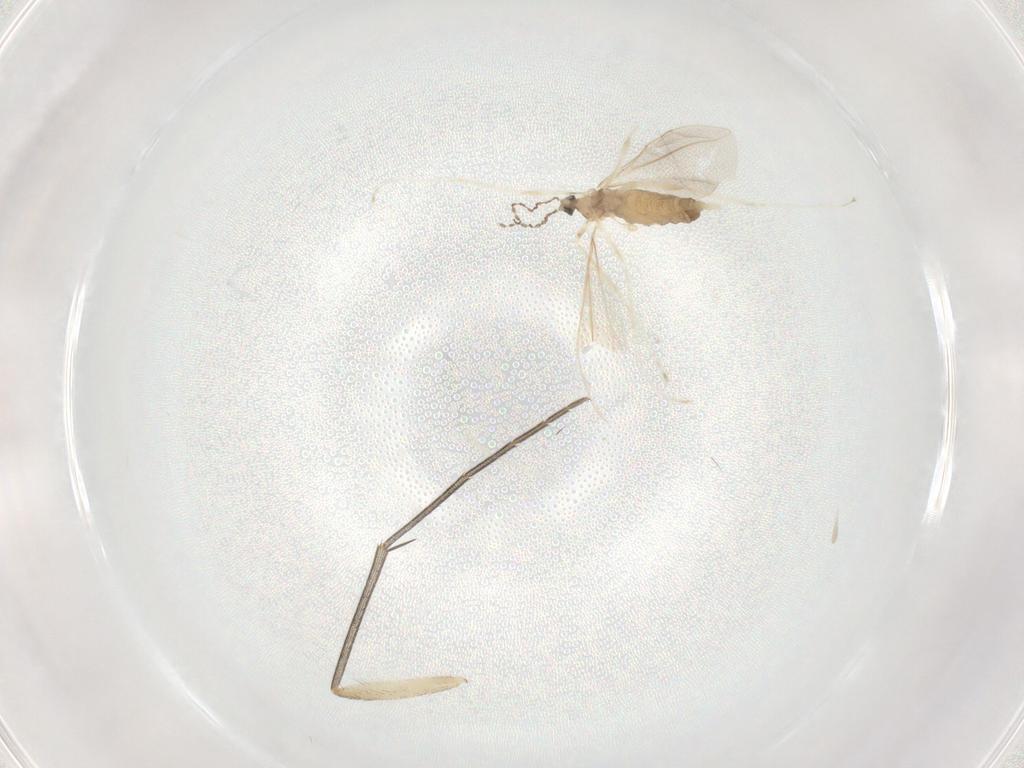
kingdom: Animalia
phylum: Arthropoda
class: Insecta
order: Diptera
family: Cecidomyiidae
